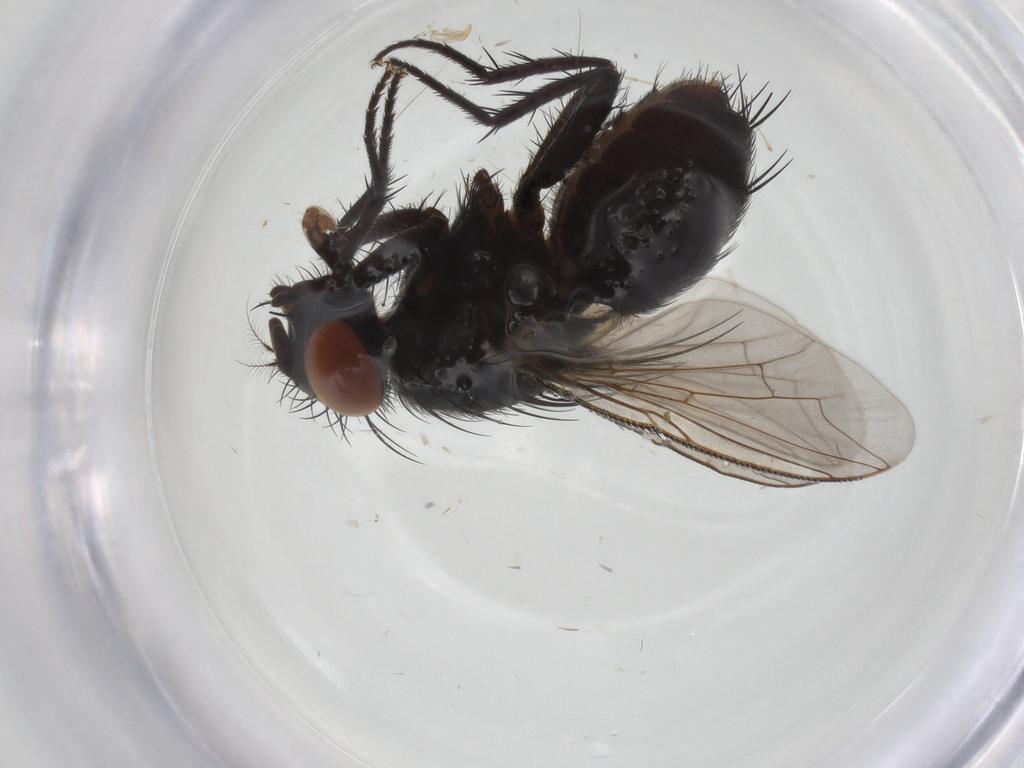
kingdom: Animalia
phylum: Arthropoda
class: Insecta
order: Diptera
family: Sarcophagidae
